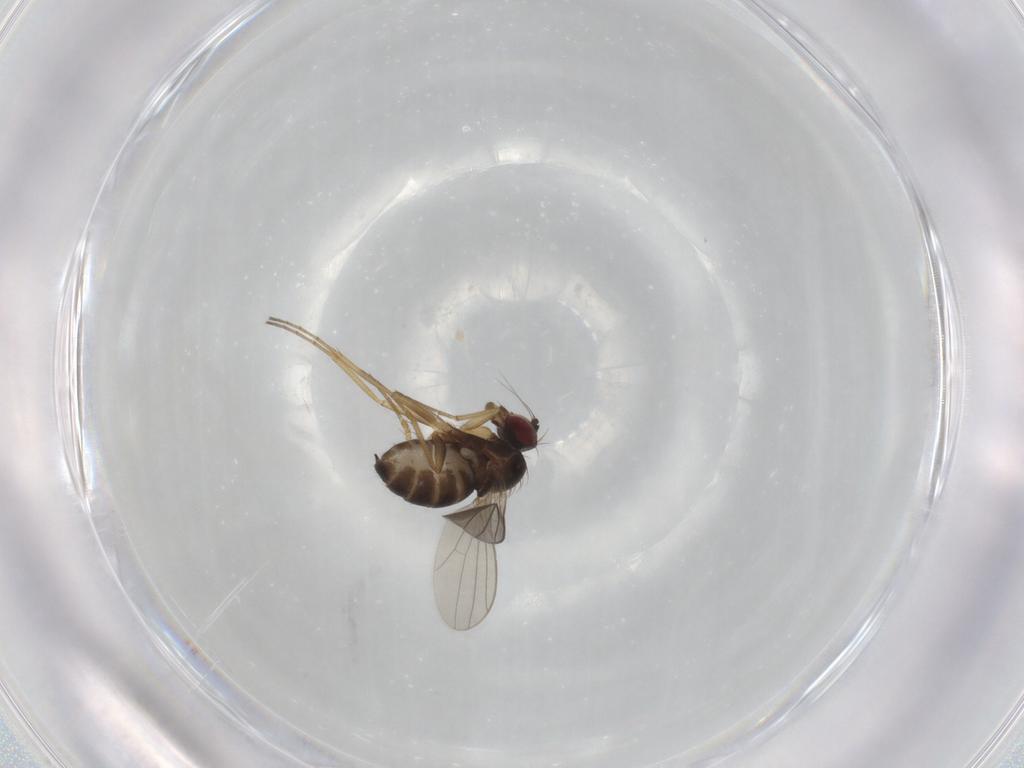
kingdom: Animalia
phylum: Arthropoda
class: Insecta
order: Diptera
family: Dolichopodidae
